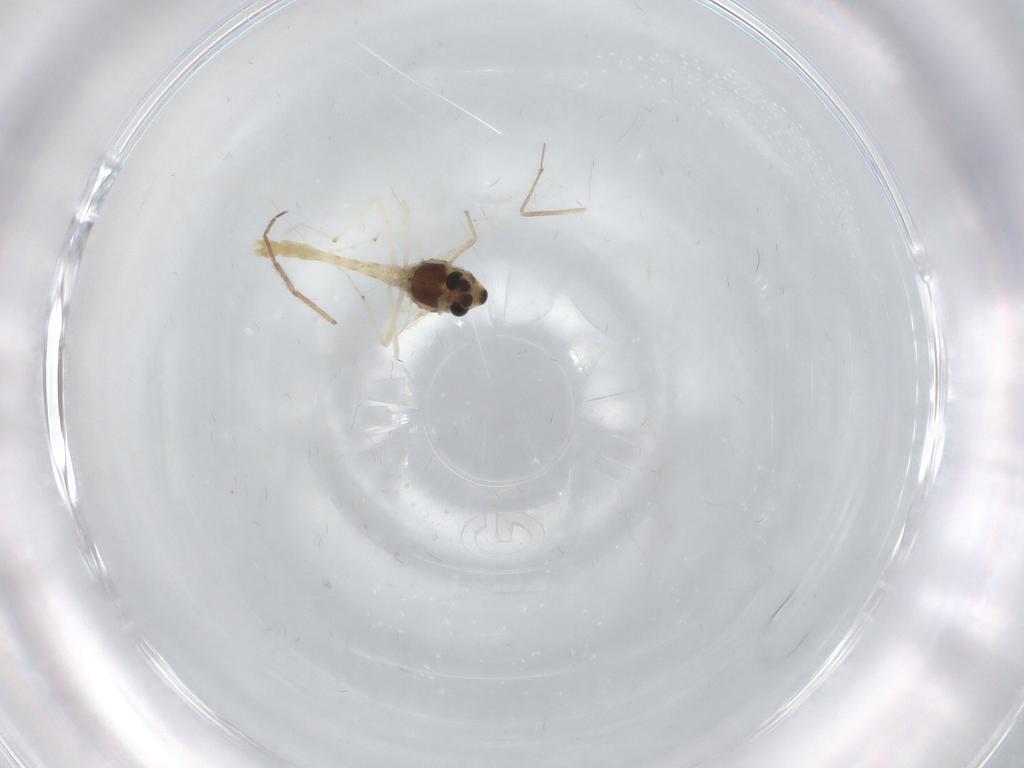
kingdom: Animalia
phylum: Arthropoda
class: Insecta
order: Diptera
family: Chironomidae
